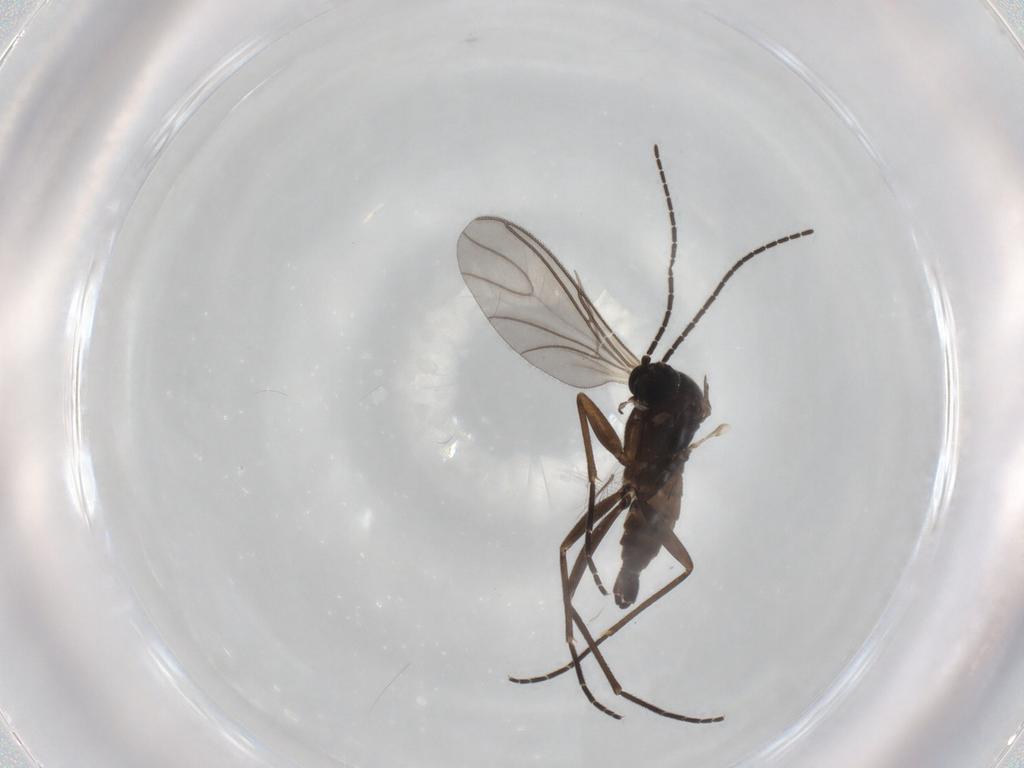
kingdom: Animalia
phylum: Arthropoda
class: Insecta
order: Diptera
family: Sciaridae
